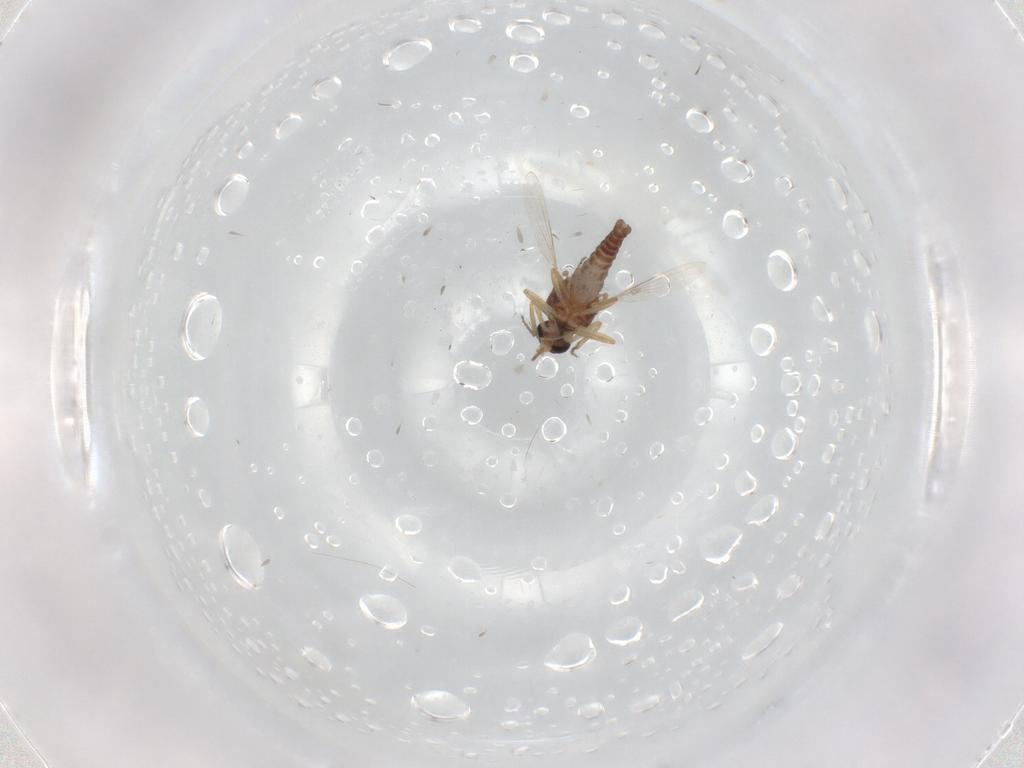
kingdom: Animalia
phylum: Arthropoda
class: Insecta
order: Diptera
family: Ceratopogonidae
